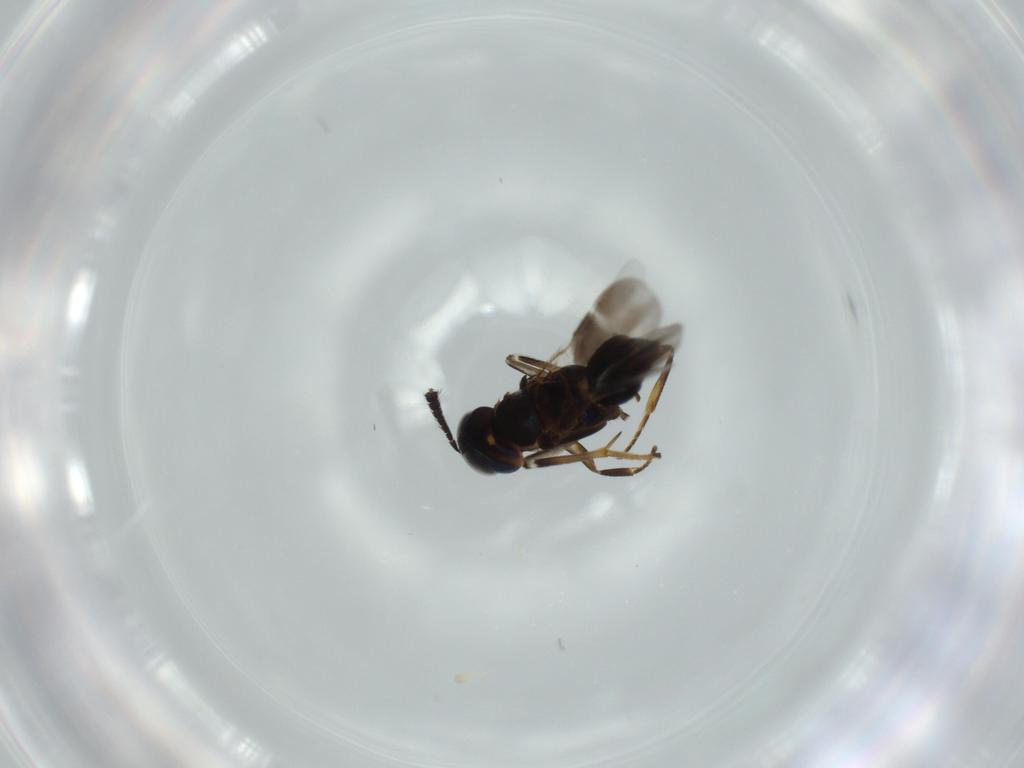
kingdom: Animalia
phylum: Arthropoda
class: Insecta
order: Hymenoptera
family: Encyrtidae
